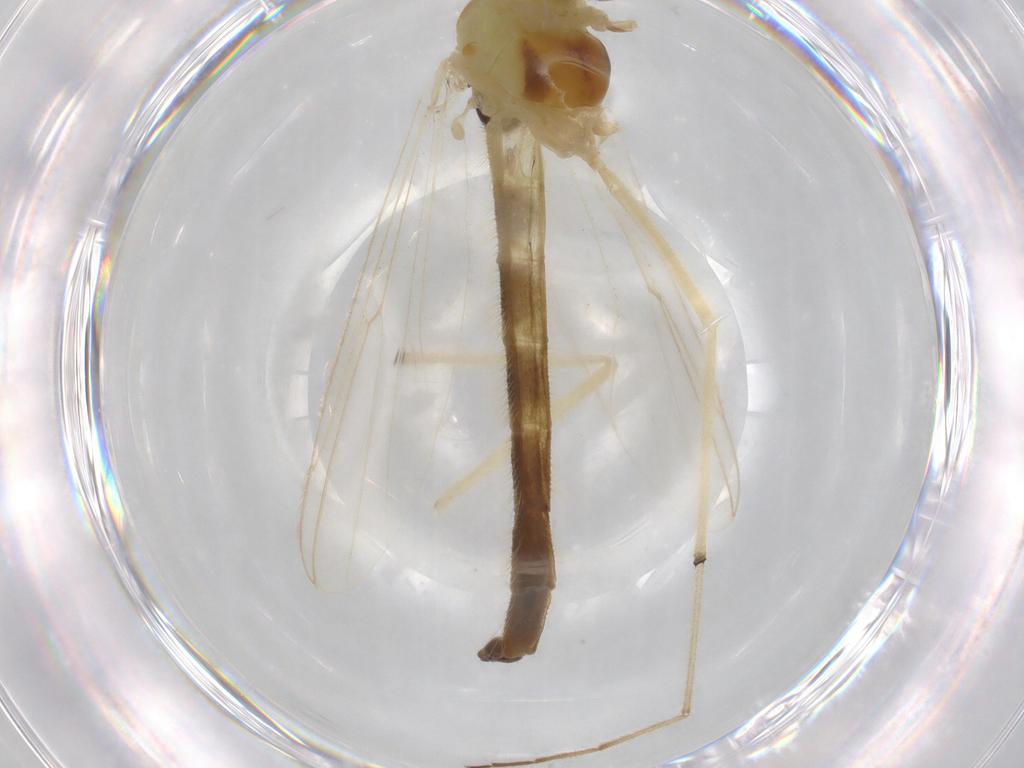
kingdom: Animalia
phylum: Arthropoda
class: Insecta
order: Diptera
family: Chironomidae
